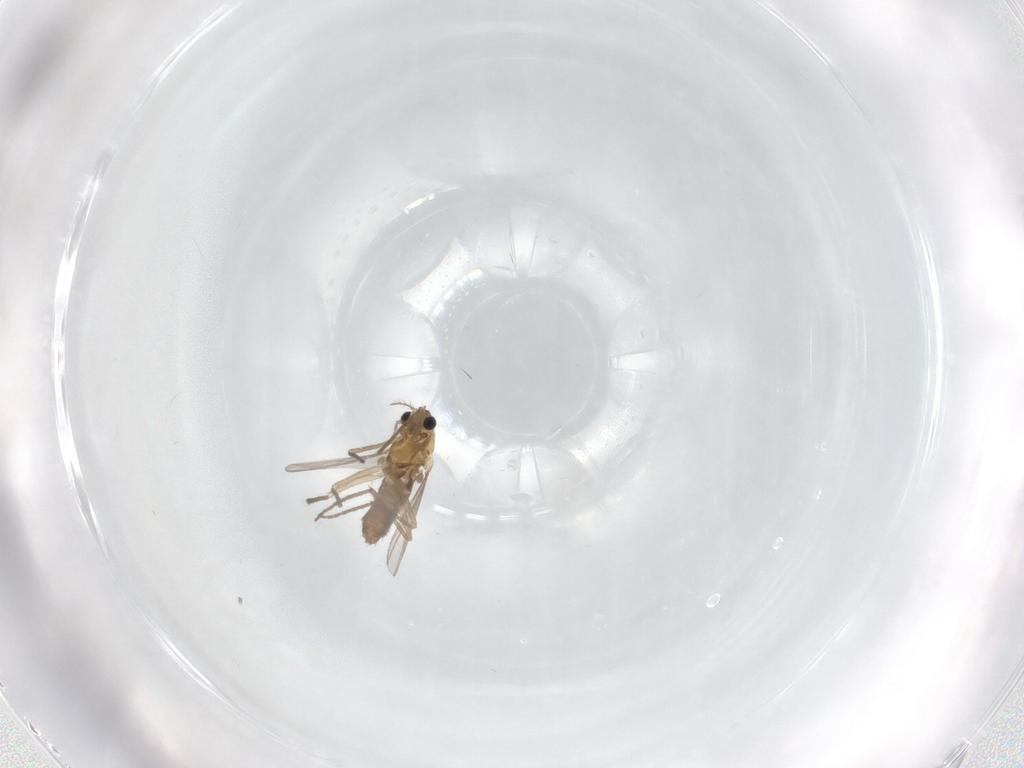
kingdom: Animalia
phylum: Arthropoda
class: Insecta
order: Diptera
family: Chironomidae
